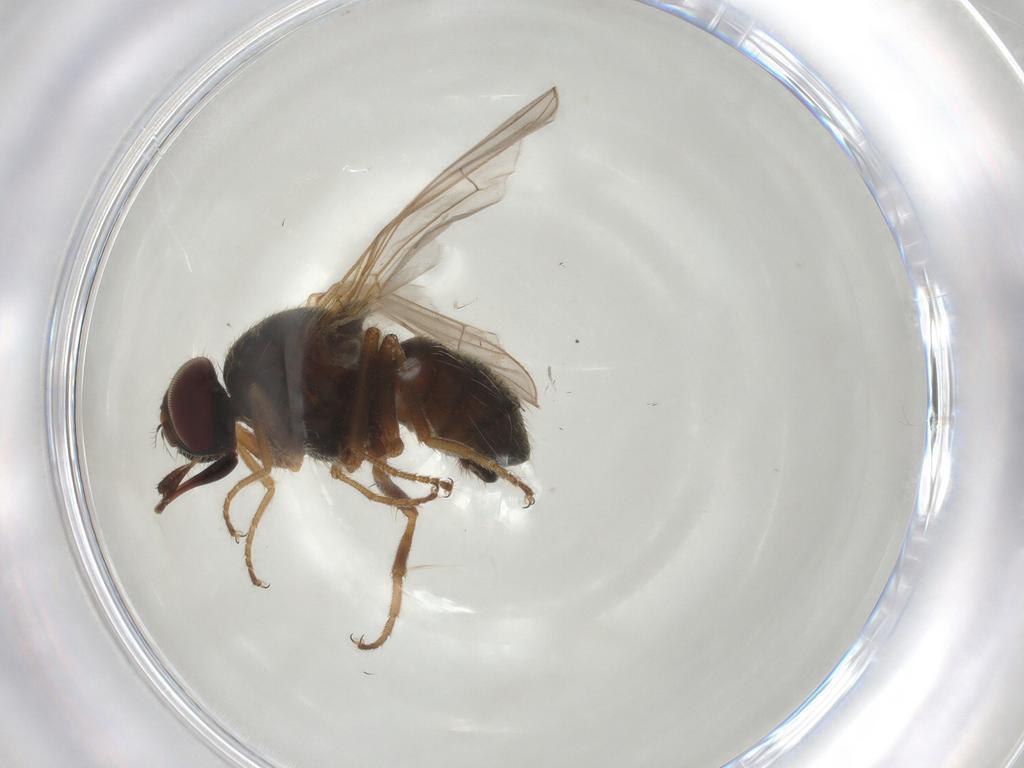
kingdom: Animalia
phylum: Arthropoda
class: Insecta
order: Diptera
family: Muscidae
